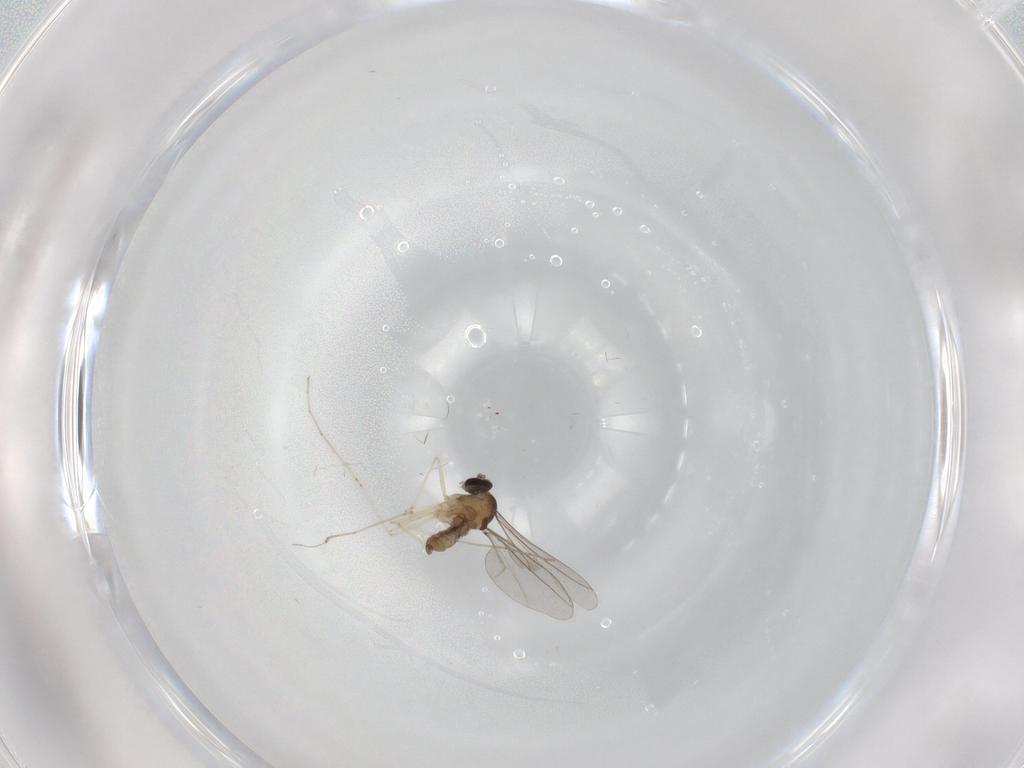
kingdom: Animalia
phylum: Arthropoda
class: Insecta
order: Diptera
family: Cecidomyiidae
